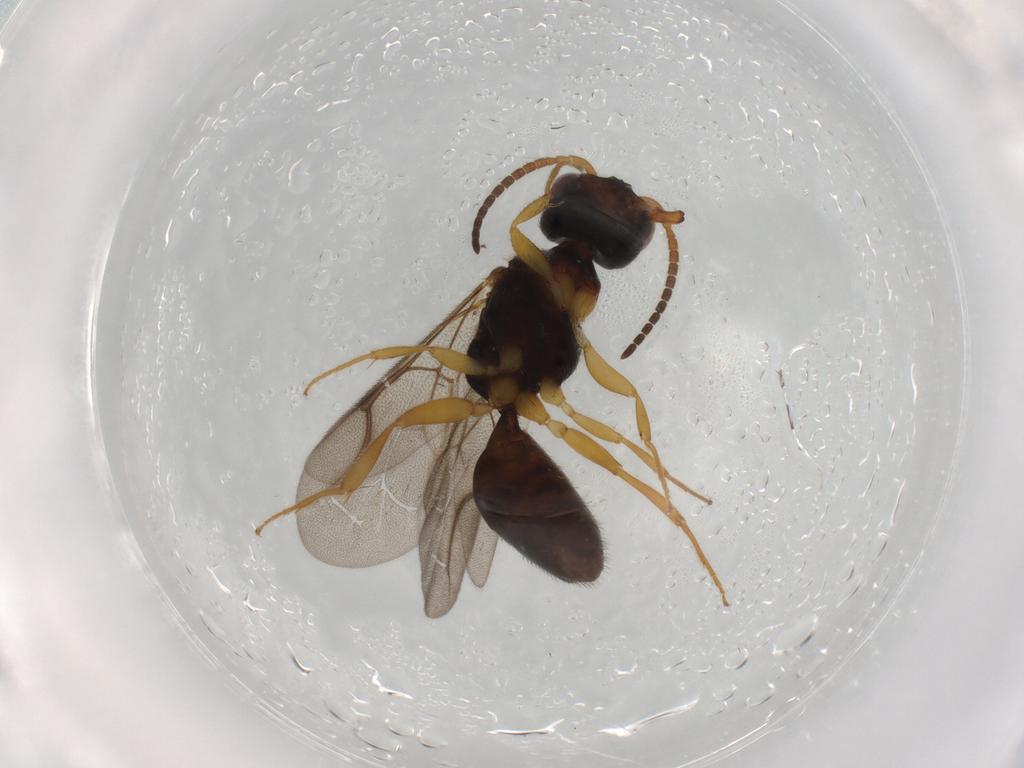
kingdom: Animalia
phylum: Arthropoda
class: Insecta
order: Hymenoptera
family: Bethylidae
